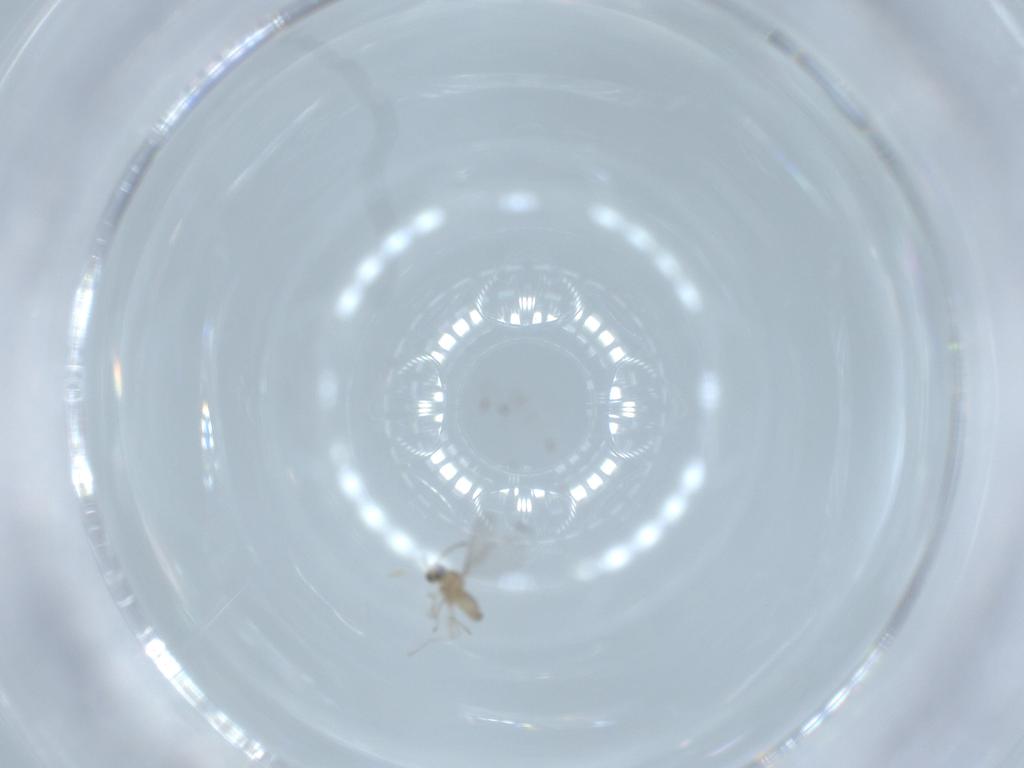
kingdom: Animalia
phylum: Arthropoda
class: Insecta
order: Diptera
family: Cecidomyiidae
